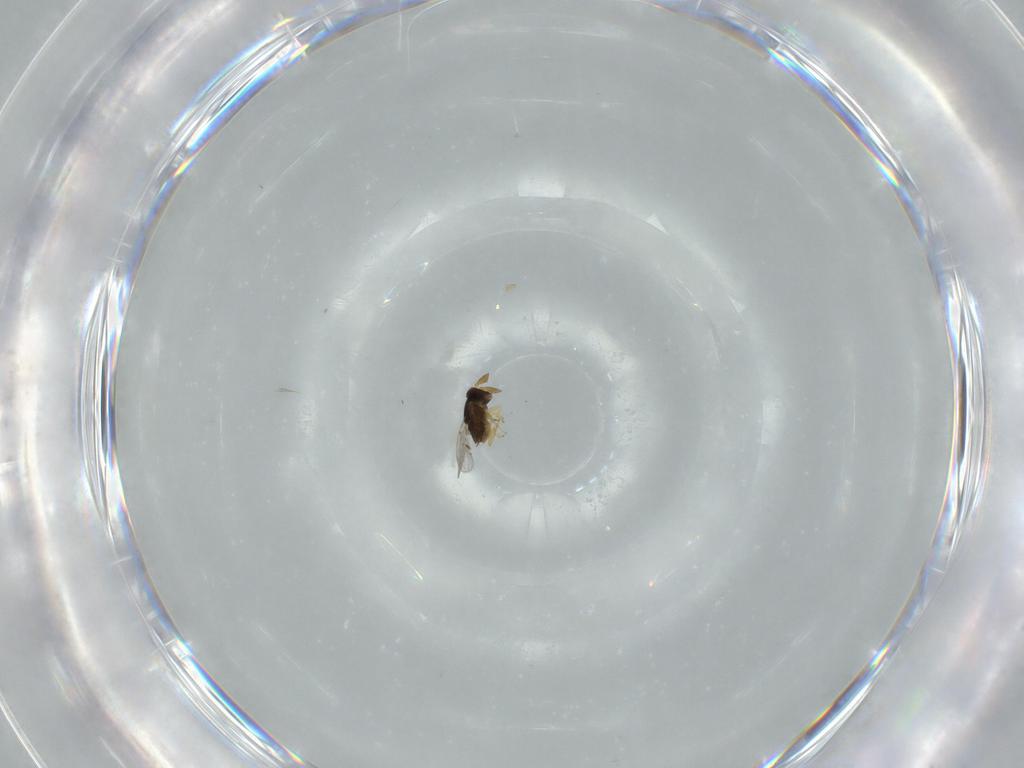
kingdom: Animalia
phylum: Arthropoda
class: Insecta
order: Hymenoptera
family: Encyrtidae
